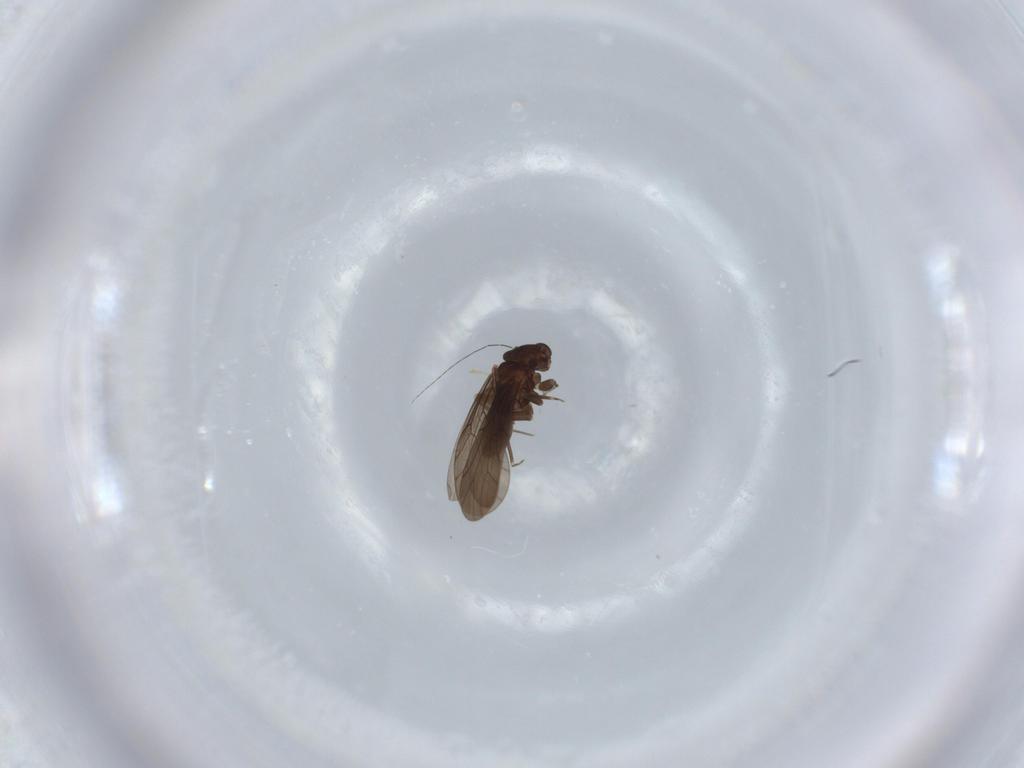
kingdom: Animalia
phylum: Arthropoda
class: Insecta
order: Psocodea
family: Lepidopsocidae
